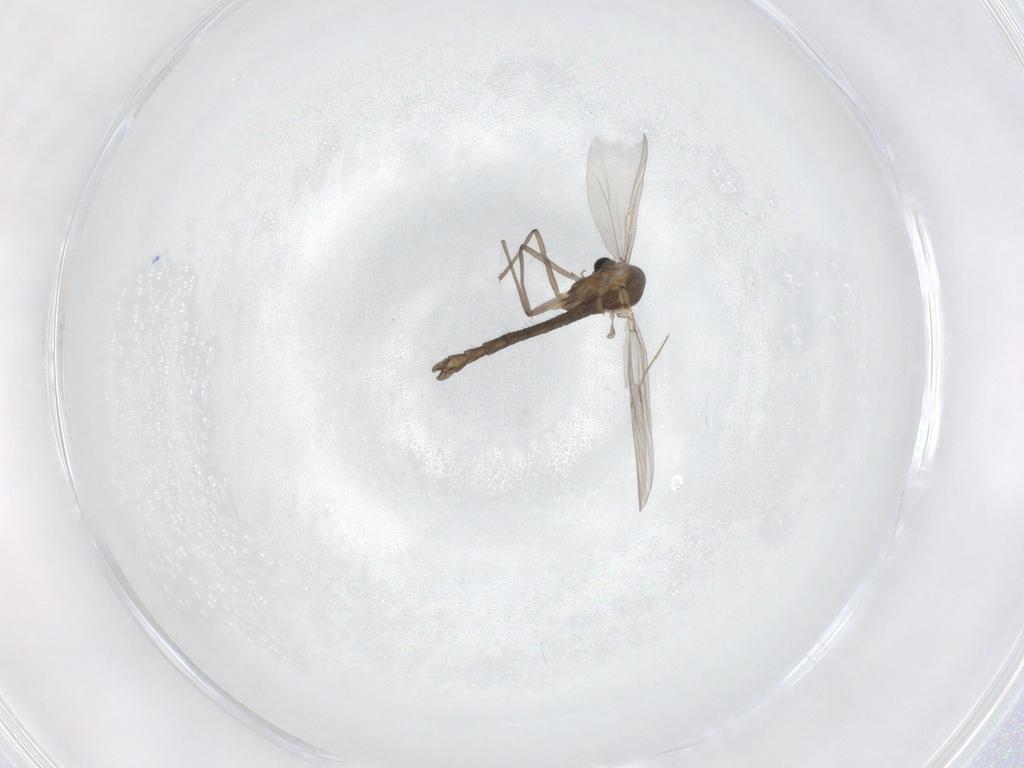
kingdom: Animalia
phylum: Arthropoda
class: Insecta
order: Diptera
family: Chironomidae
